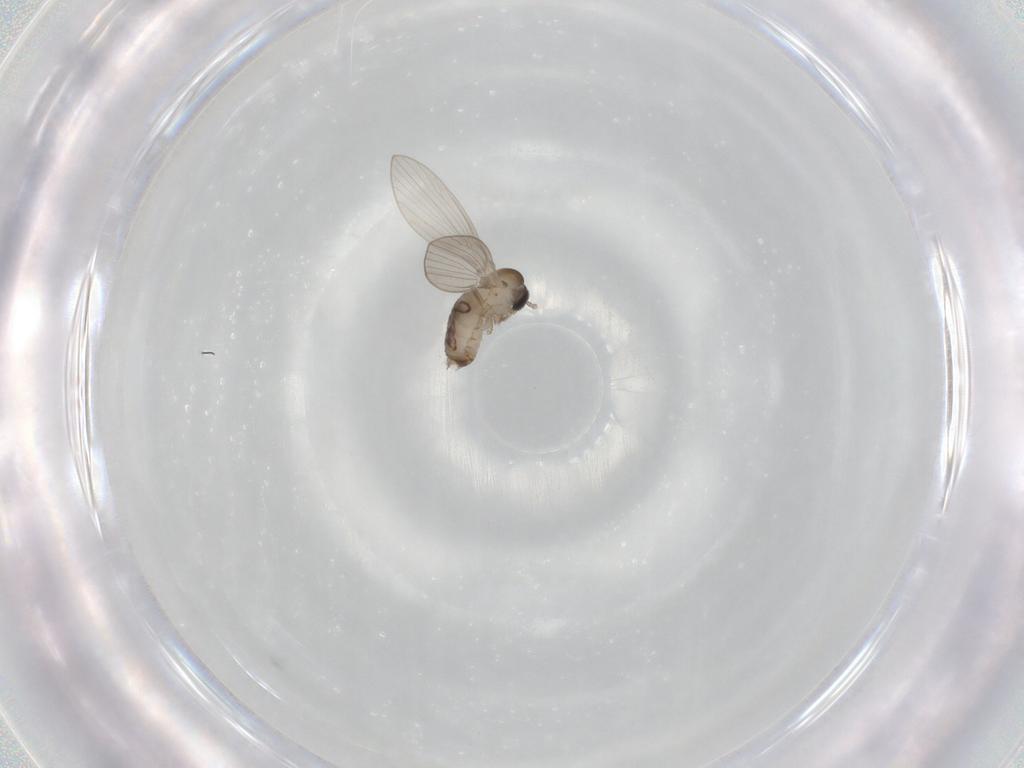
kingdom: Animalia
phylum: Arthropoda
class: Insecta
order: Diptera
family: Psychodidae
